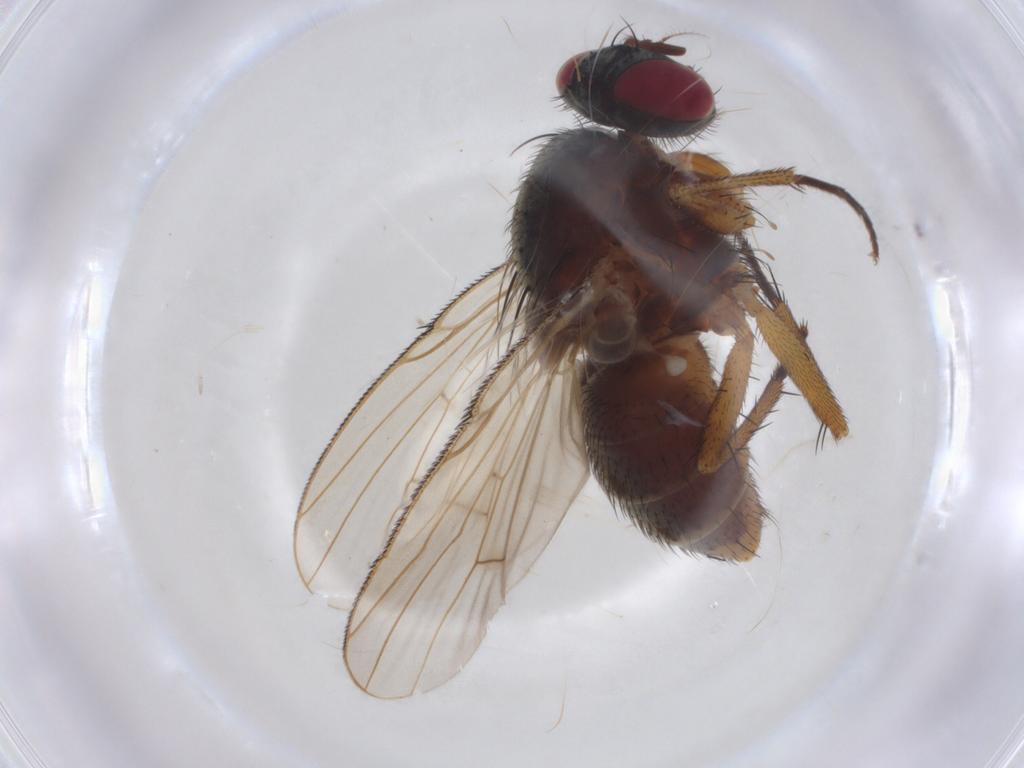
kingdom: Animalia
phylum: Arthropoda
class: Insecta
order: Diptera
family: Muscidae
